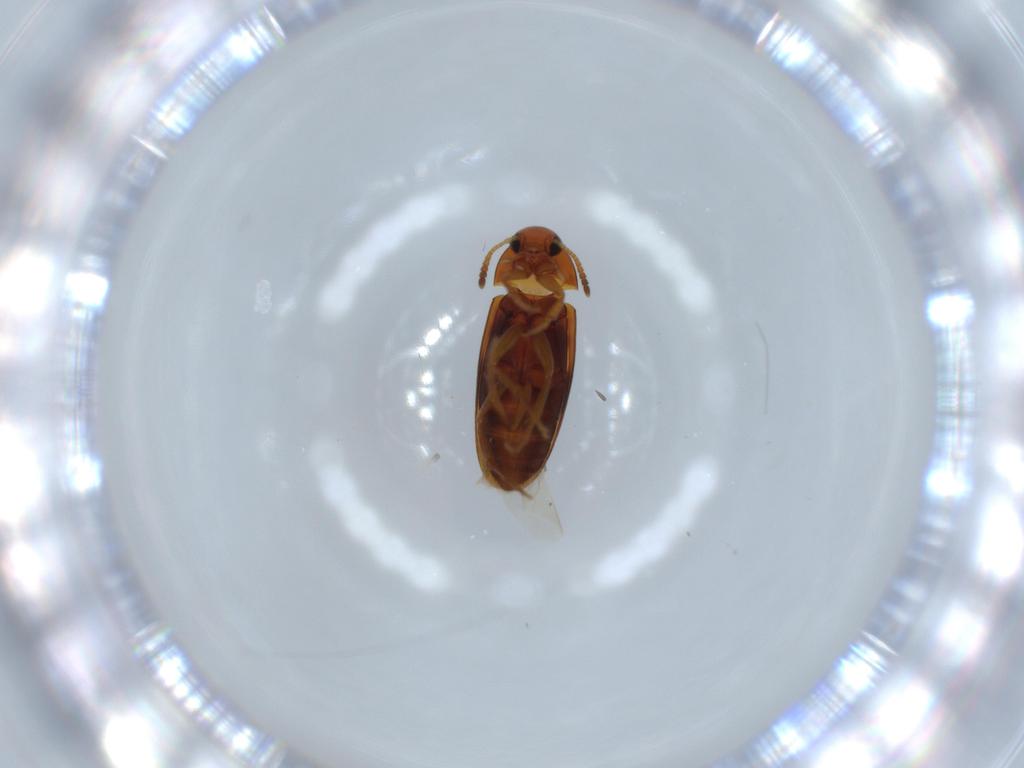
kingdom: Animalia
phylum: Arthropoda
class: Insecta
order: Coleoptera
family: Scraptiidae
